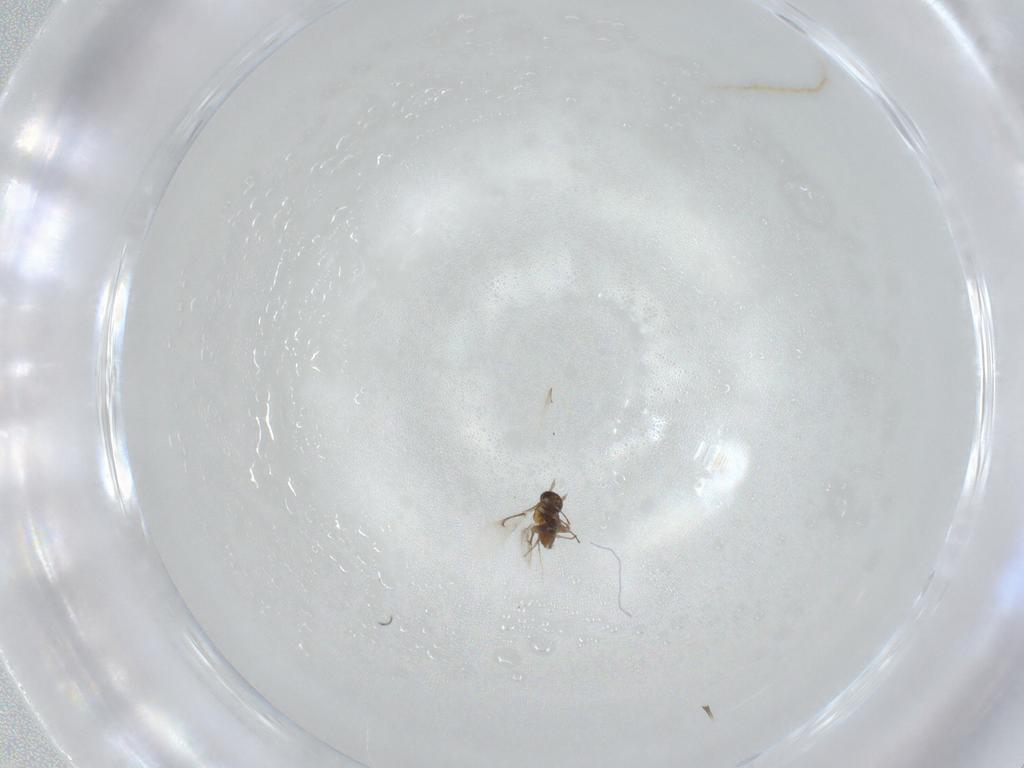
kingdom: Animalia
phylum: Arthropoda
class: Insecta
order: Hymenoptera
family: Trichogrammatidae
